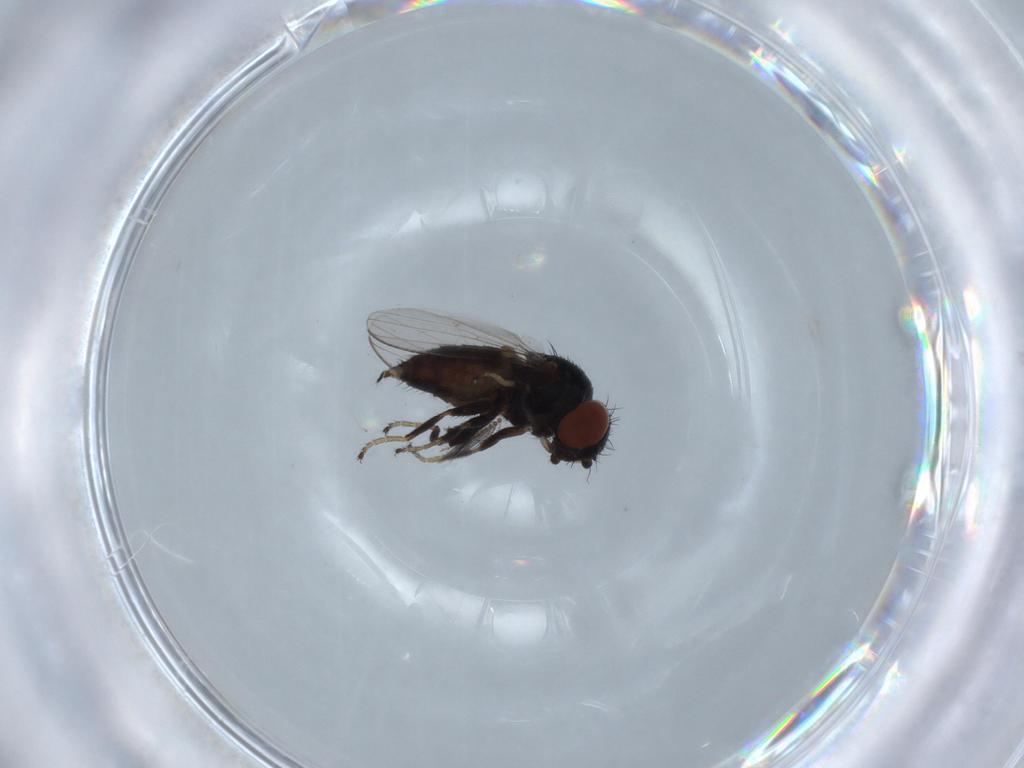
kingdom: Animalia
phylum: Arthropoda
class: Insecta
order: Diptera
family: Chloropidae
